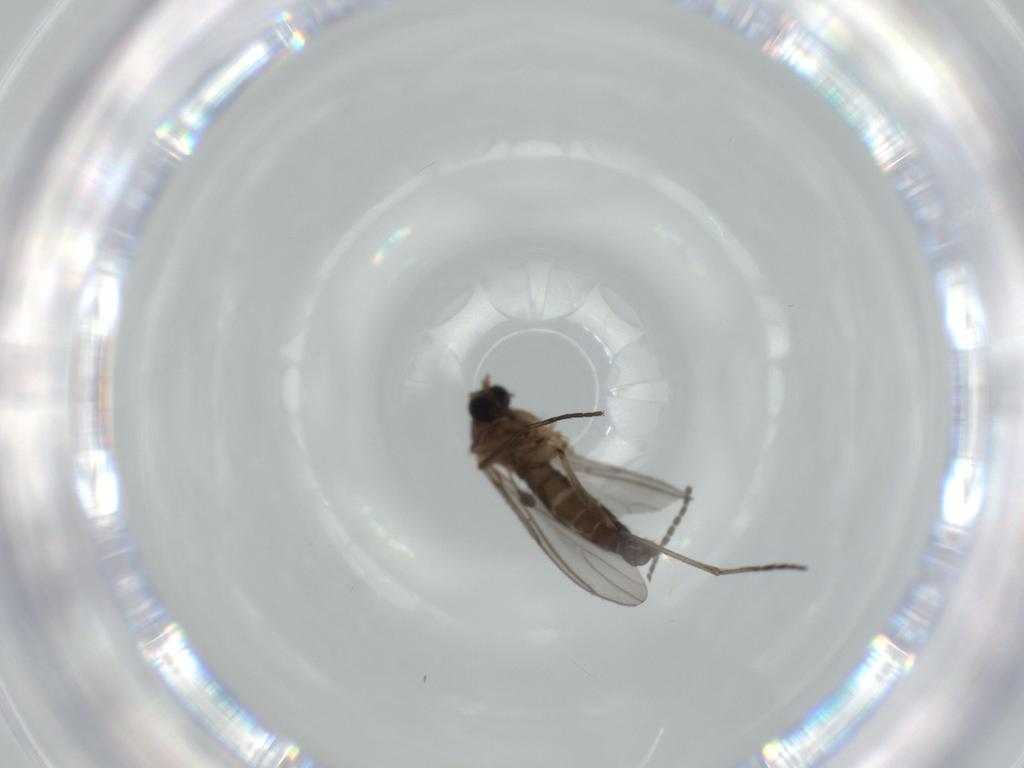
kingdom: Animalia
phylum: Arthropoda
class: Insecta
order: Diptera
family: Sciaridae
